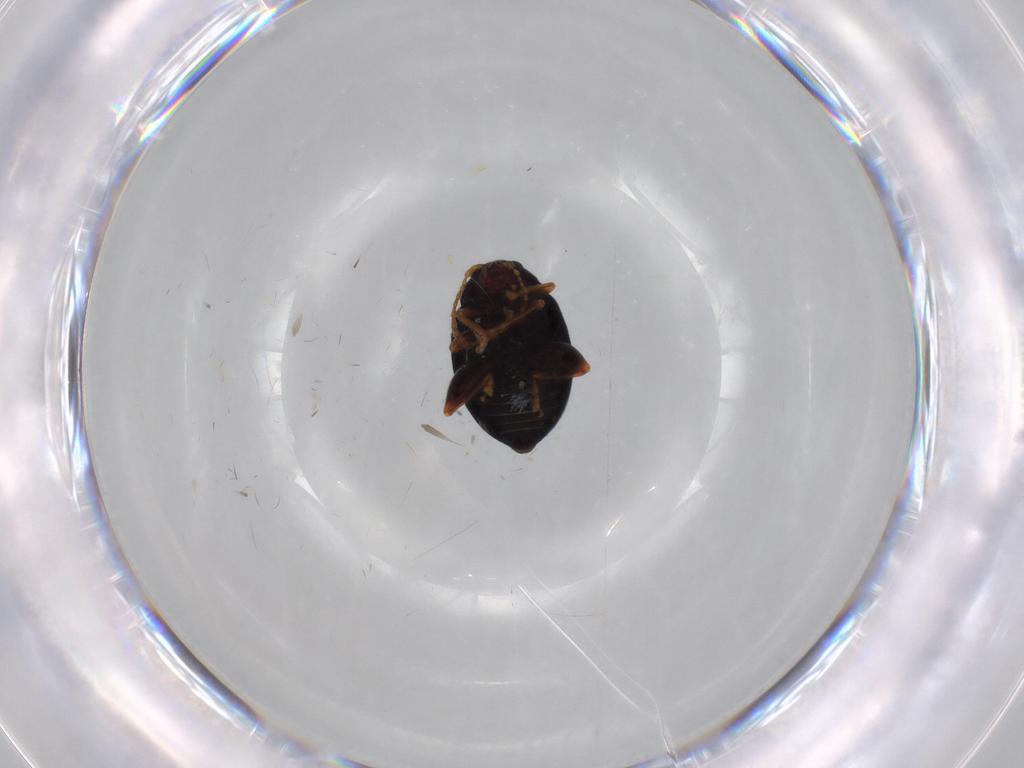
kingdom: Animalia
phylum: Arthropoda
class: Insecta
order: Coleoptera
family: Chrysomelidae
